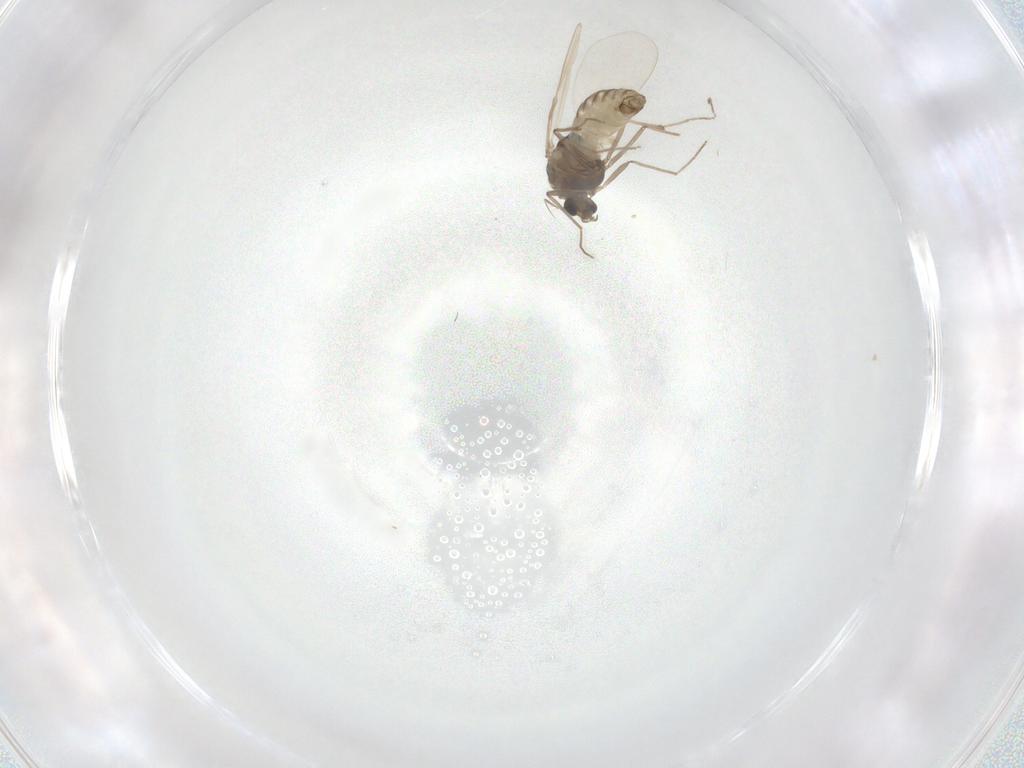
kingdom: Animalia
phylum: Arthropoda
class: Insecta
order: Diptera
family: Chironomidae
